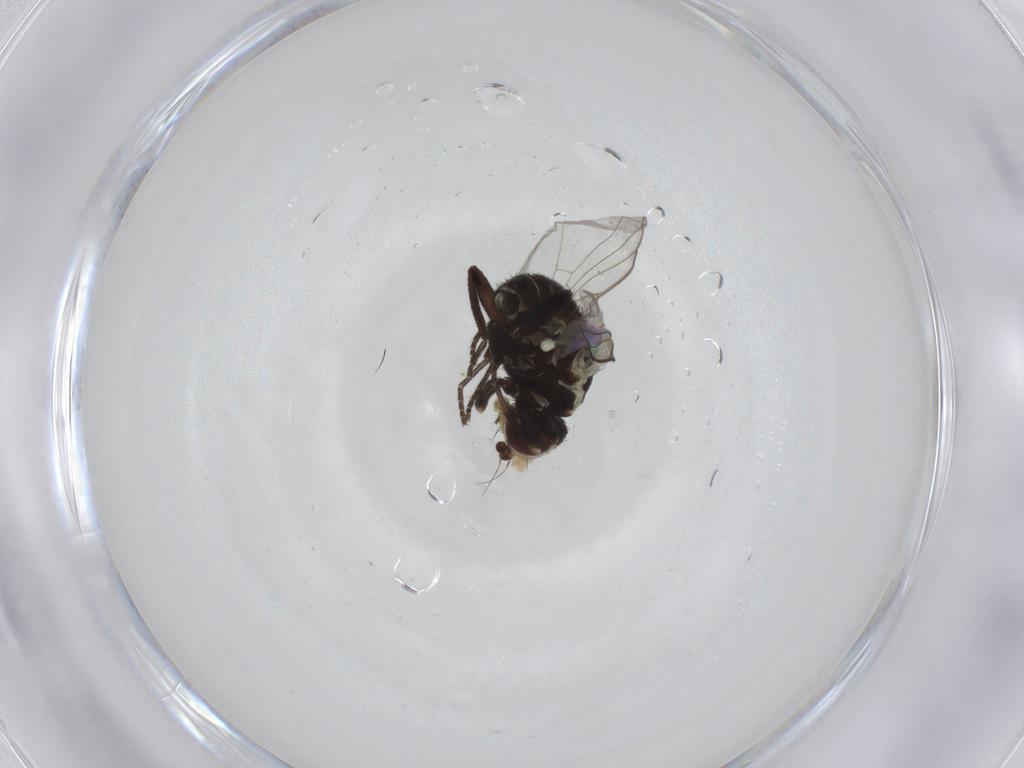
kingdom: Animalia
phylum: Arthropoda
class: Insecta
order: Diptera
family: Agromyzidae
